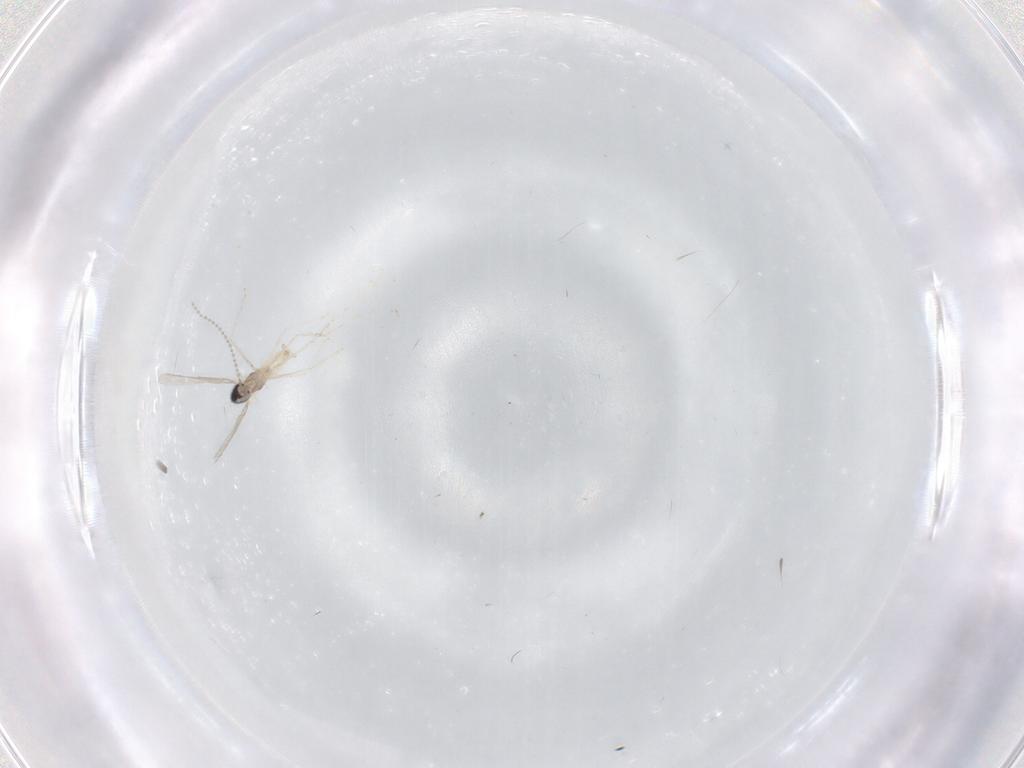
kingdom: Animalia
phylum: Arthropoda
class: Insecta
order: Diptera
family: Cecidomyiidae
